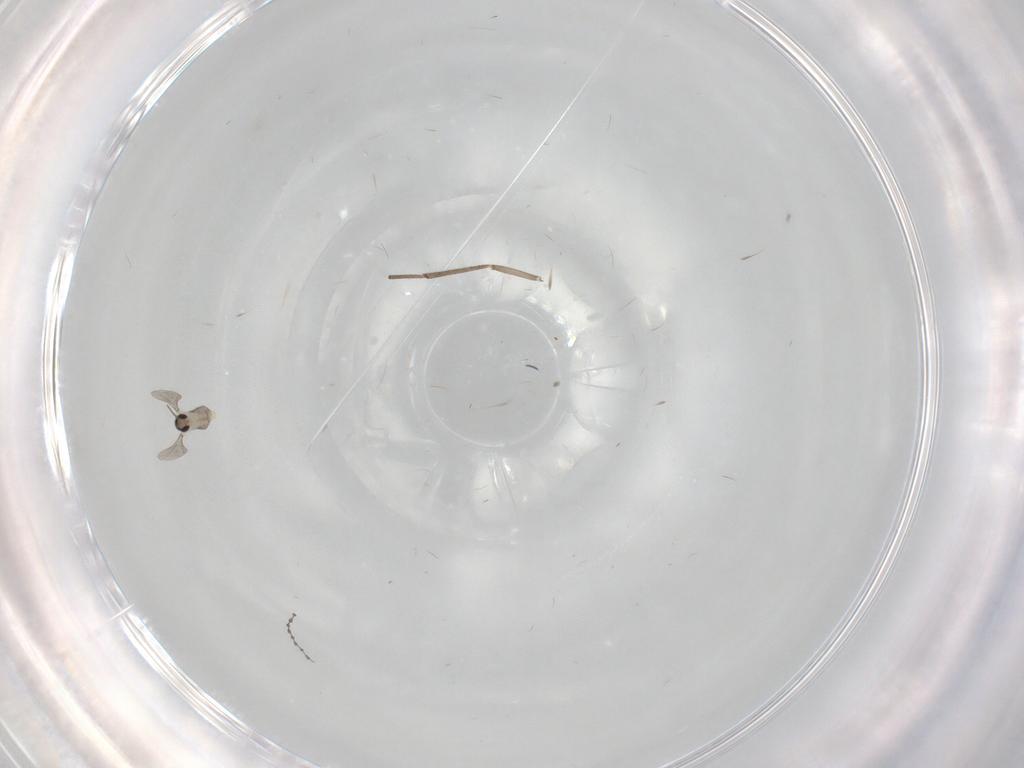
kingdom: Animalia
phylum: Arthropoda
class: Insecta
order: Diptera
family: Cecidomyiidae
